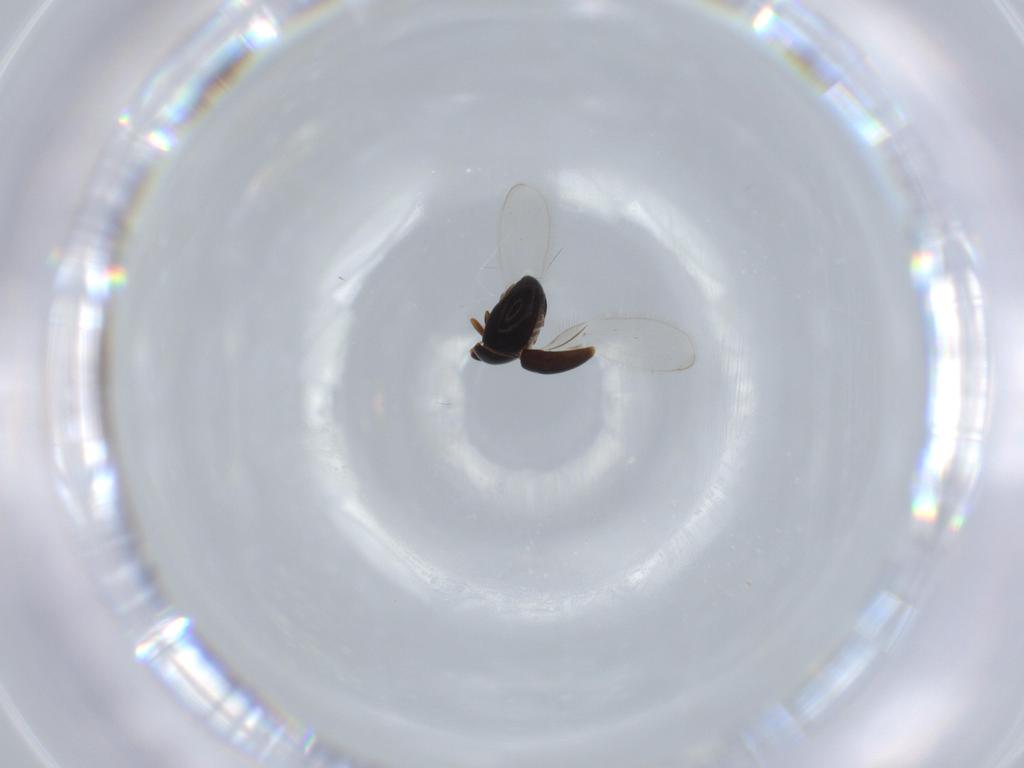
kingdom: Animalia
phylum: Arthropoda
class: Insecta
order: Coleoptera
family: Corylophidae
